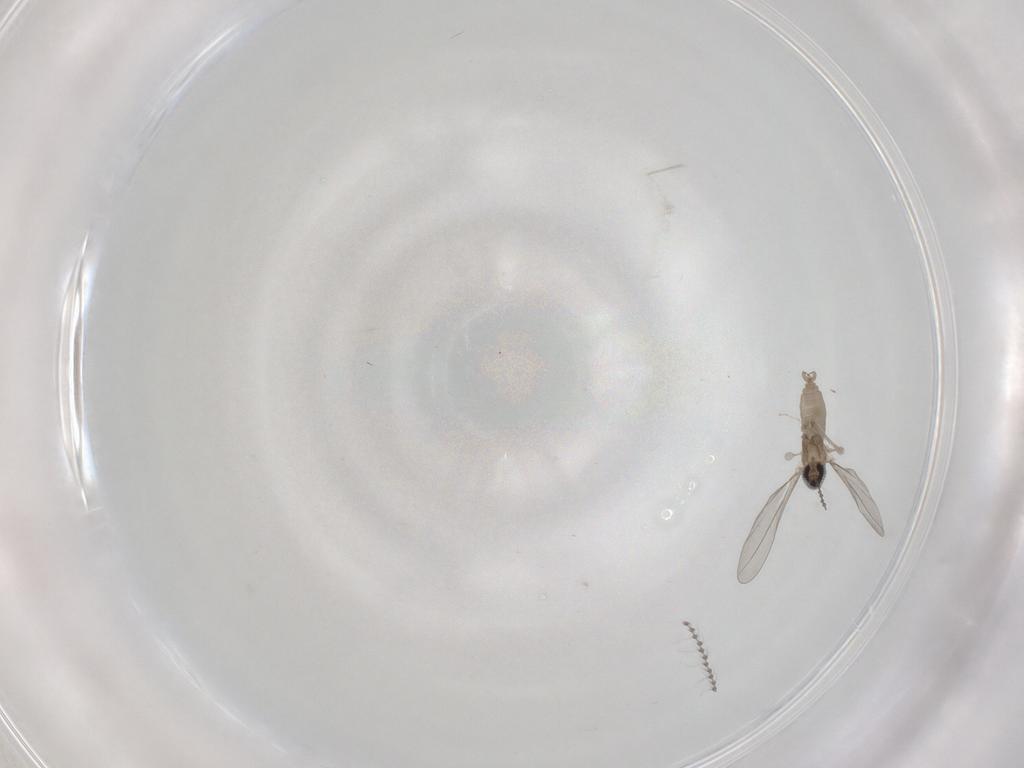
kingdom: Animalia
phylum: Arthropoda
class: Insecta
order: Diptera
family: Cecidomyiidae
